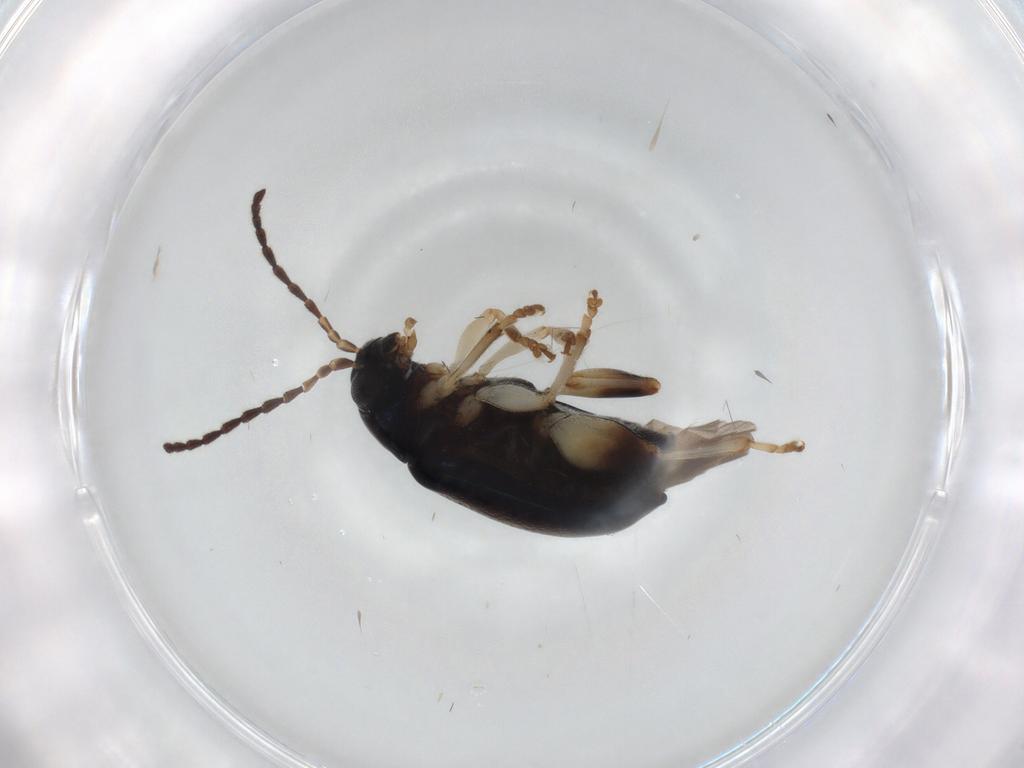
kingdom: Animalia
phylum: Arthropoda
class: Insecta
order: Coleoptera
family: Chrysomelidae
